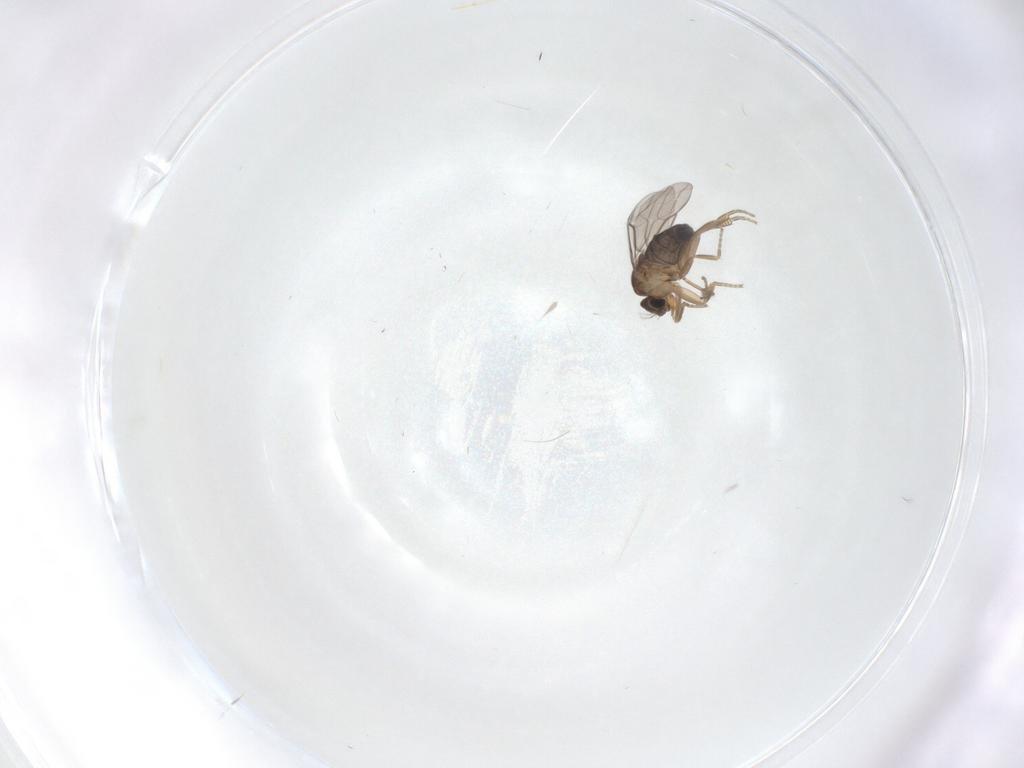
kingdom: Animalia
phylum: Arthropoda
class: Insecta
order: Diptera
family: Phoridae
